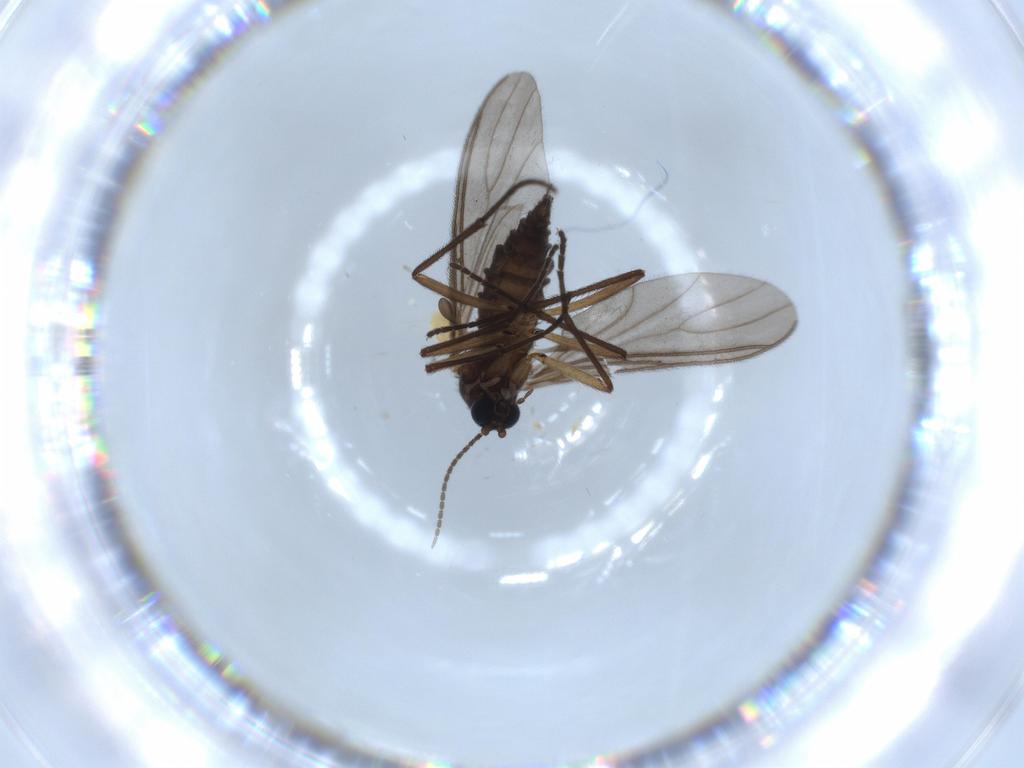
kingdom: Animalia
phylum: Arthropoda
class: Insecta
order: Diptera
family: Sciaridae
